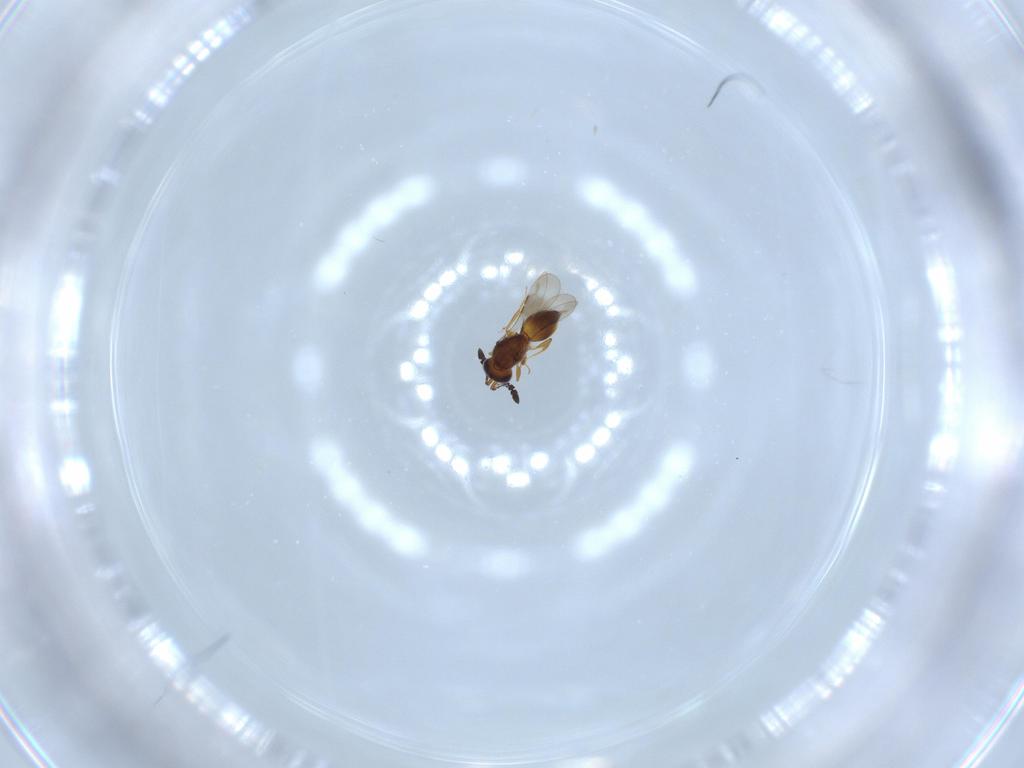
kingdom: Animalia
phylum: Arthropoda
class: Insecta
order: Hymenoptera
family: Ceraphronidae
